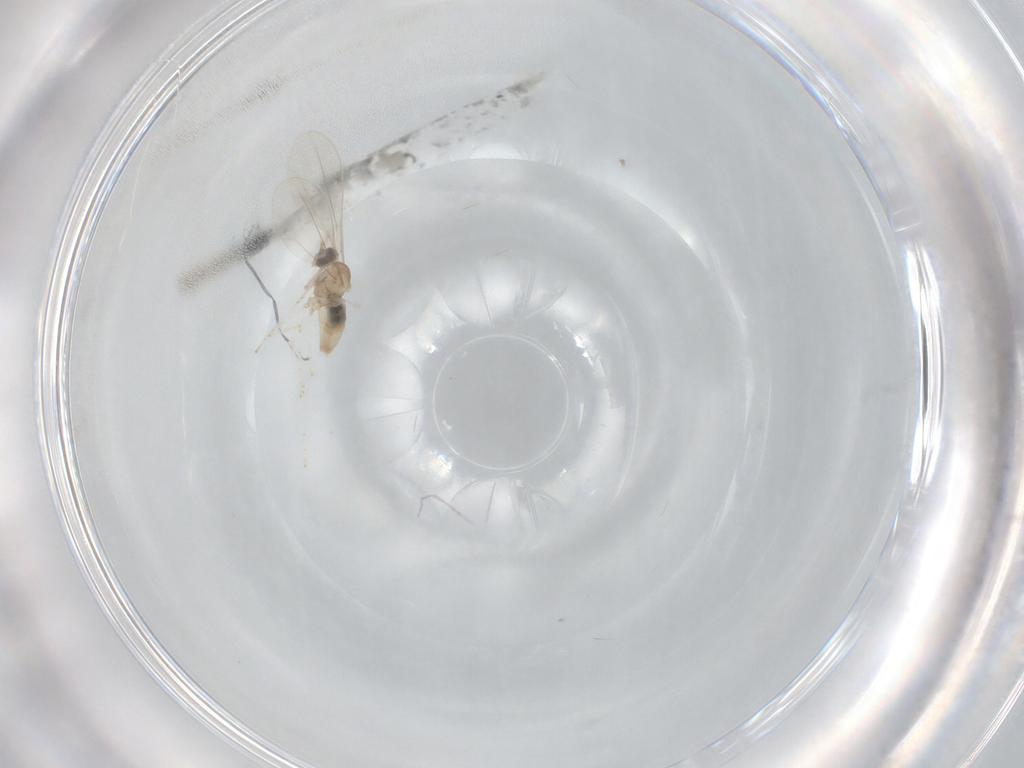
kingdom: Animalia
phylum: Arthropoda
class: Insecta
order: Diptera
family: Cecidomyiidae
